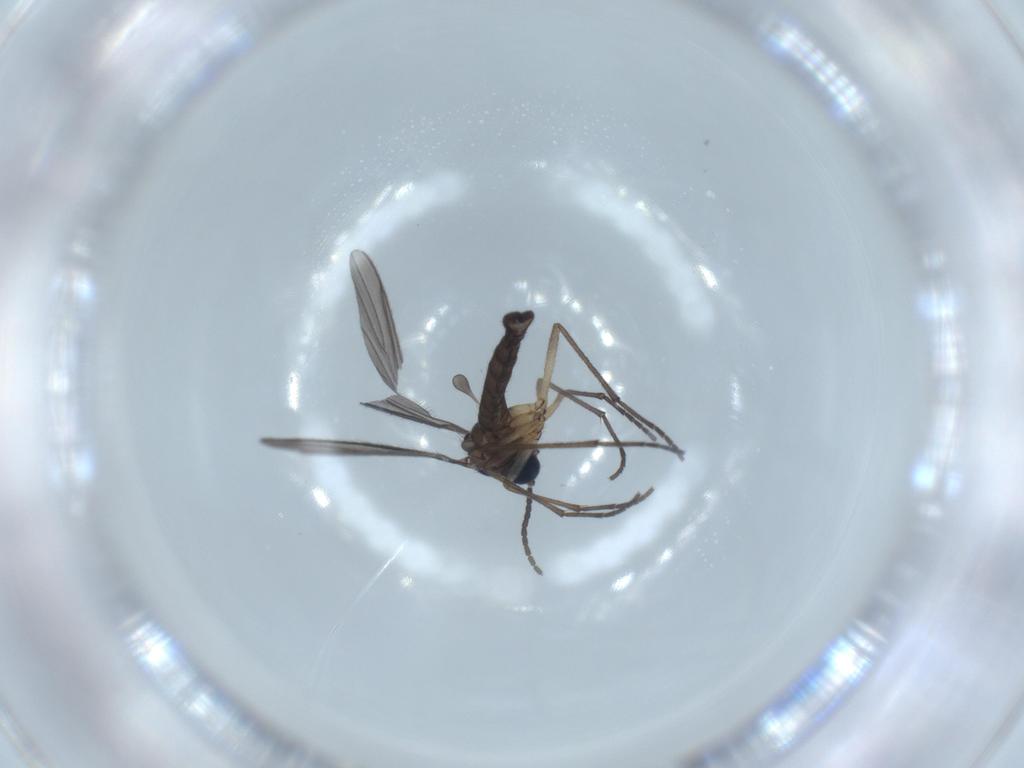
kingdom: Animalia
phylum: Arthropoda
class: Insecta
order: Diptera
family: Sciaridae
